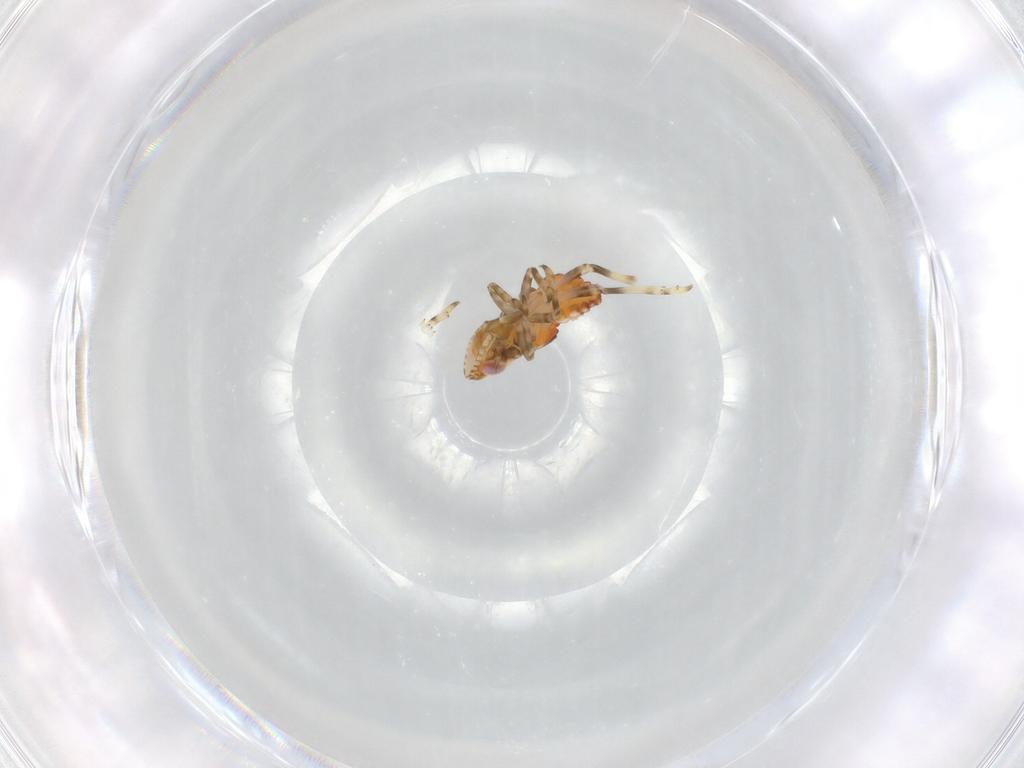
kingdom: Animalia
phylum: Arthropoda
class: Insecta
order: Hemiptera
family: Tropiduchidae
